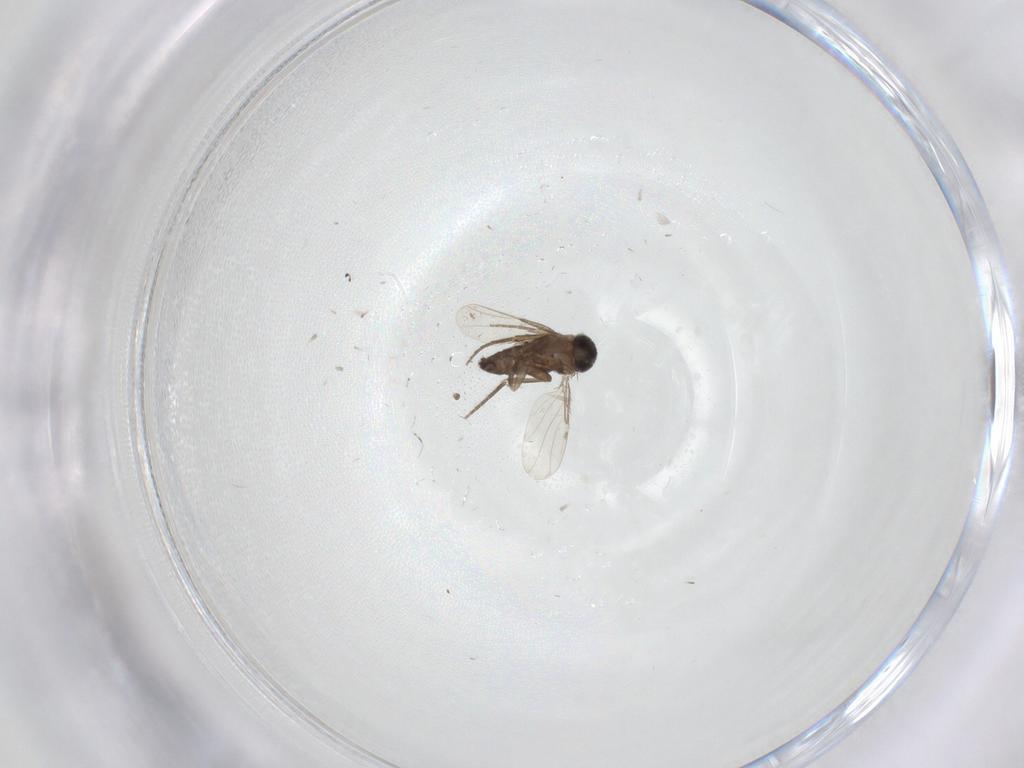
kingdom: Animalia
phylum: Arthropoda
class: Insecta
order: Diptera
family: Phoridae
